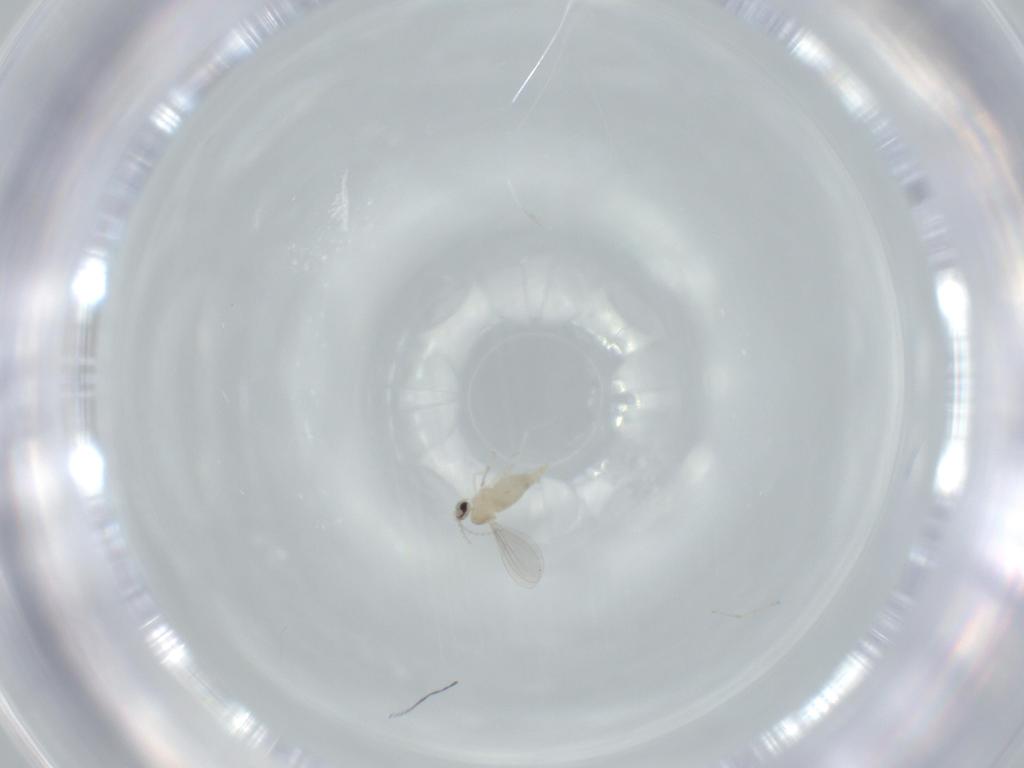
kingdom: Animalia
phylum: Arthropoda
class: Insecta
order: Diptera
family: Cecidomyiidae
